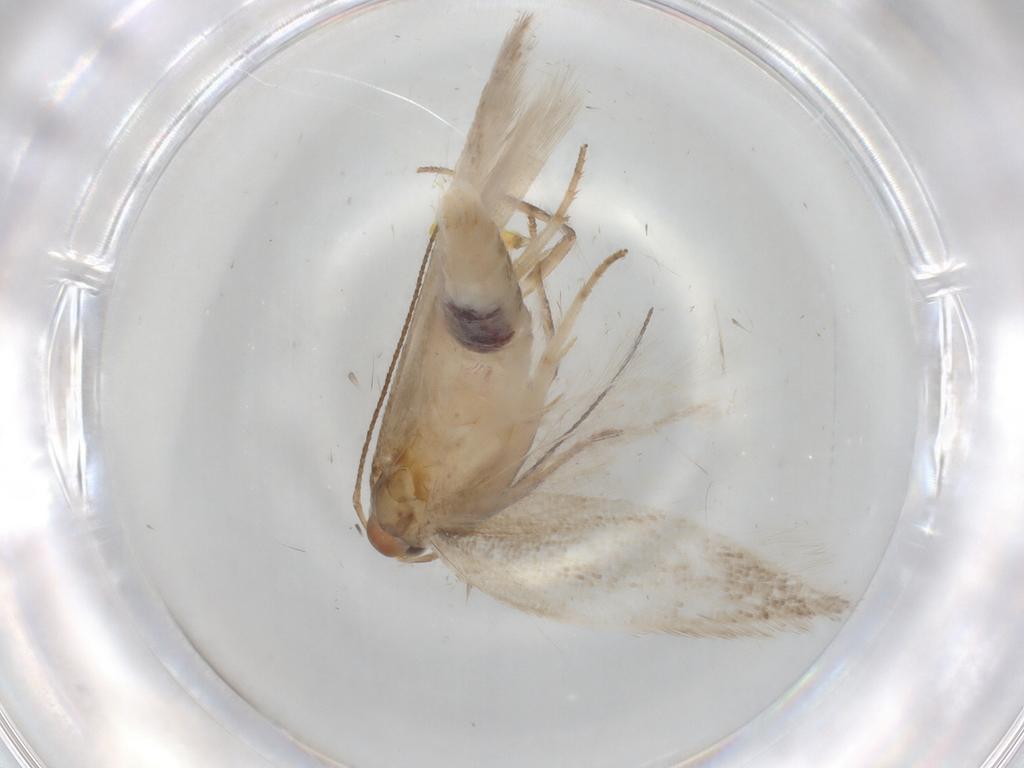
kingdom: Animalia
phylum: Arthropoda
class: Insecta
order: Lepidoptera
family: Gelechiidae
